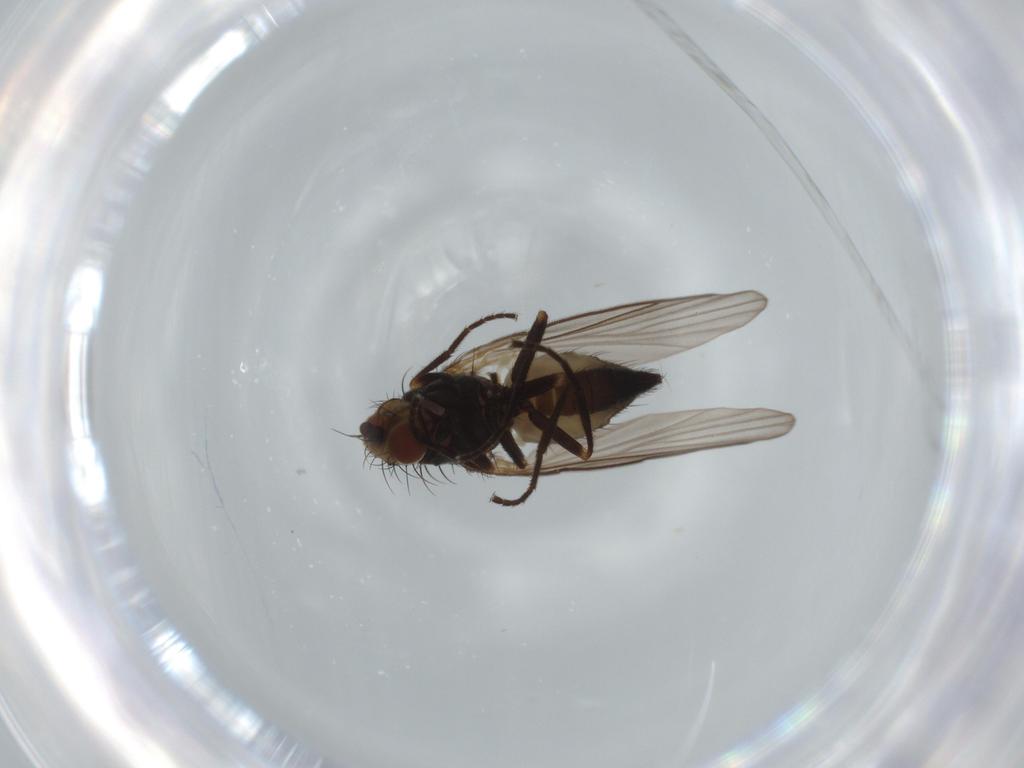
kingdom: Animalia
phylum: Arthropoda
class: Insecta
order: Diptera
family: Agromyzidae
